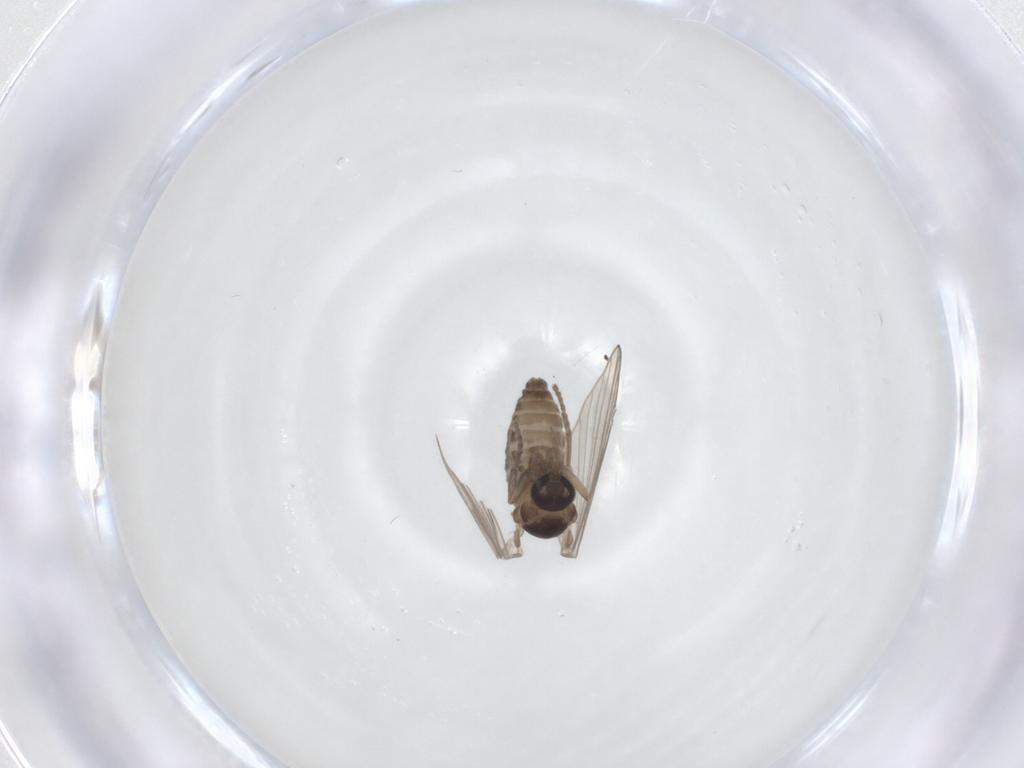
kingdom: Animalia
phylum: Arthropoda
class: Insecta
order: Diptera
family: Psychodidae
